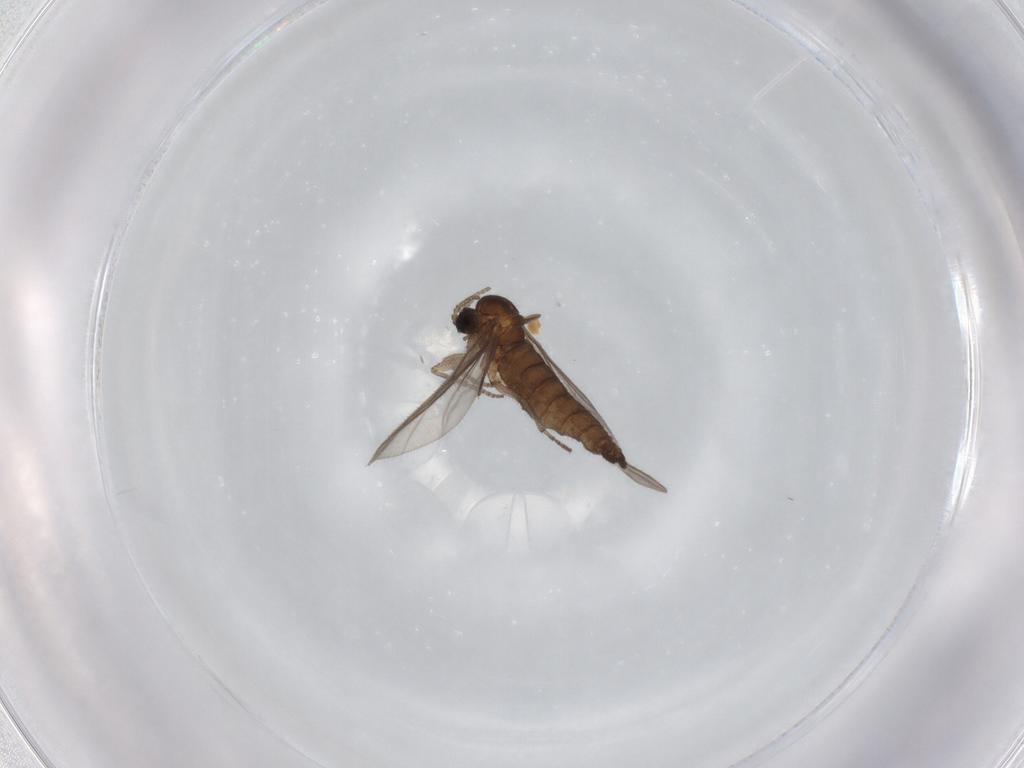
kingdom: Animalia
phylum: Arthropoda
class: Insecta
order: Diptera
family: Sciaridae
